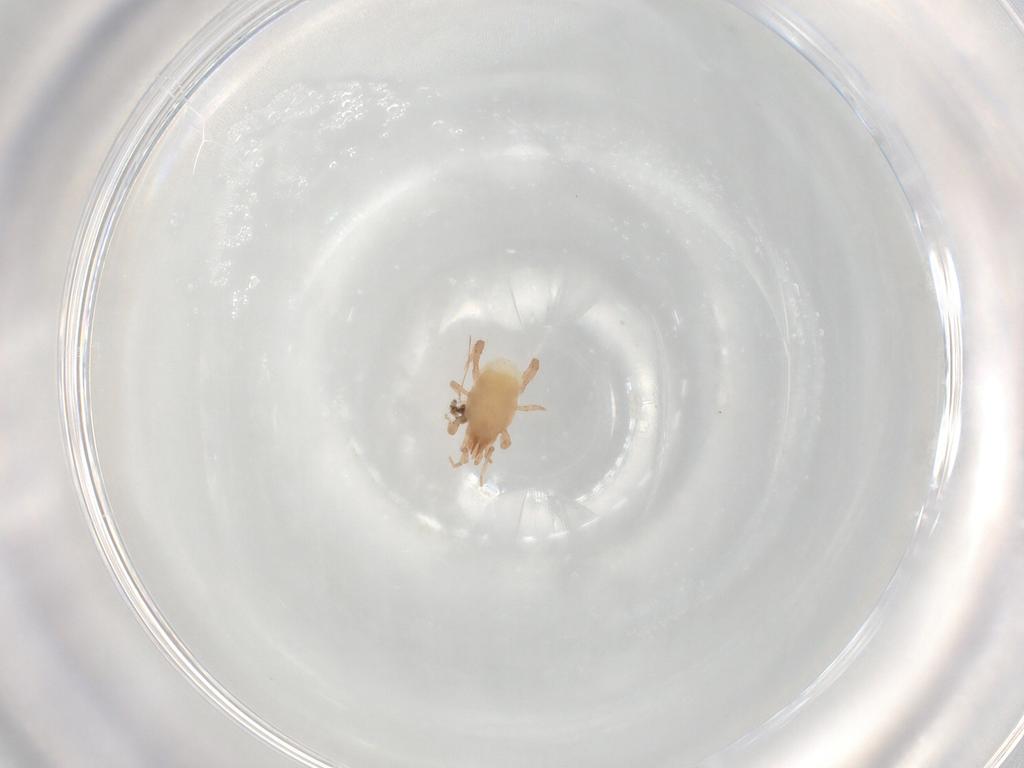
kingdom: Animalia
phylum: Arthropoda
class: Arachnida
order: Mesostigmata
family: Arctacaridae
